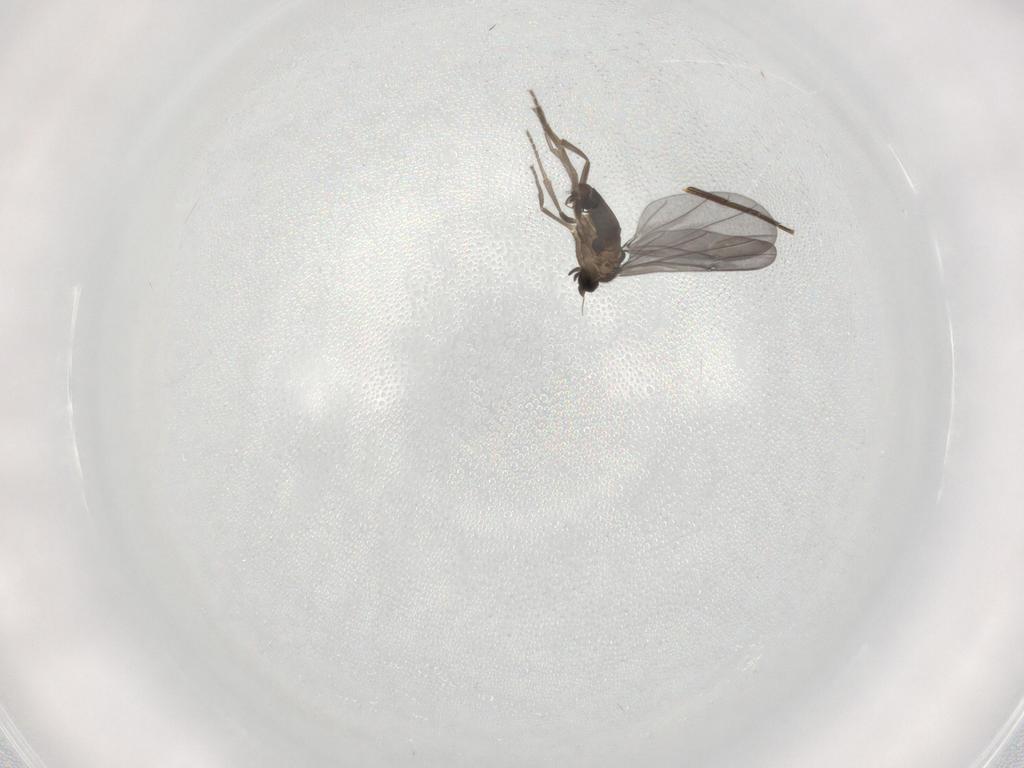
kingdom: Animalia
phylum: Arthropoda
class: Insecta
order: Diptera
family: Phoridae
